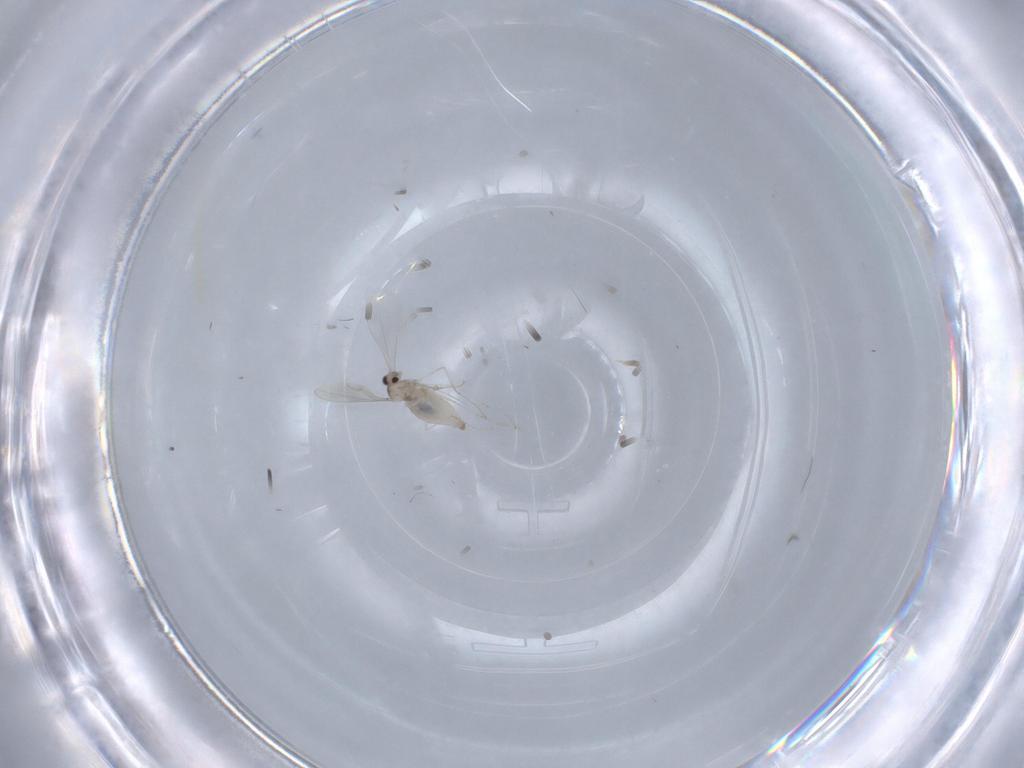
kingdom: Animalia
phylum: Arthropoda
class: Insecta
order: Diptera
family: Cecidomyiidae
